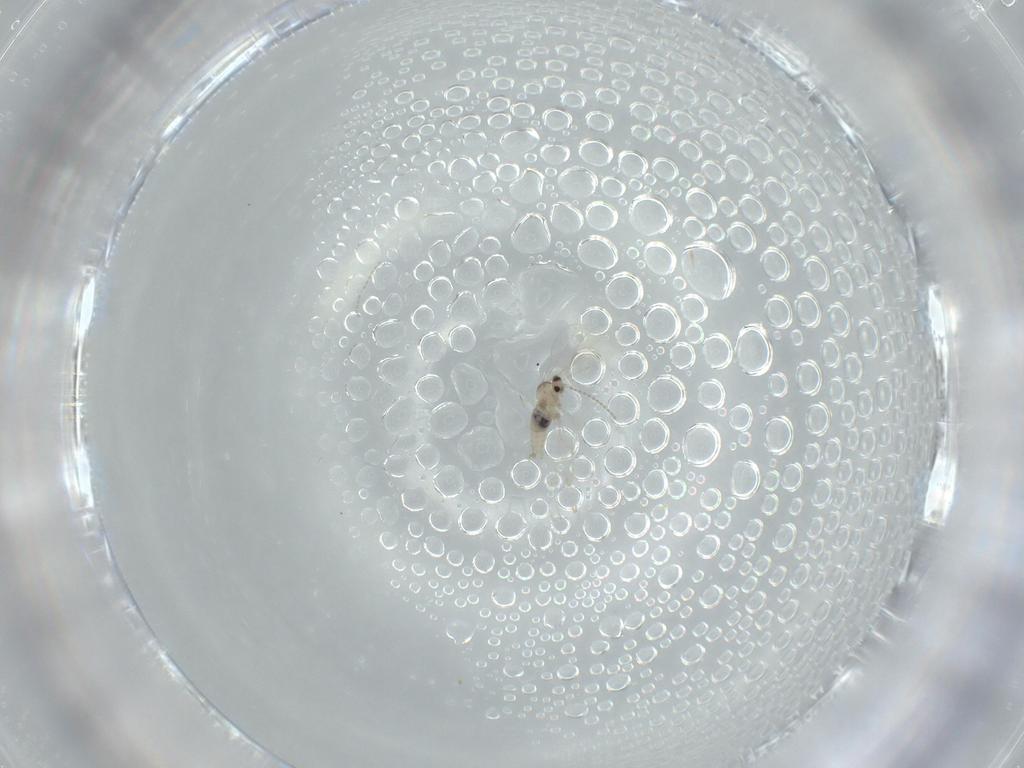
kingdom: Animalia
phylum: Arthropoda
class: Insecta
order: Diptera
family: Cecidomyiidae
